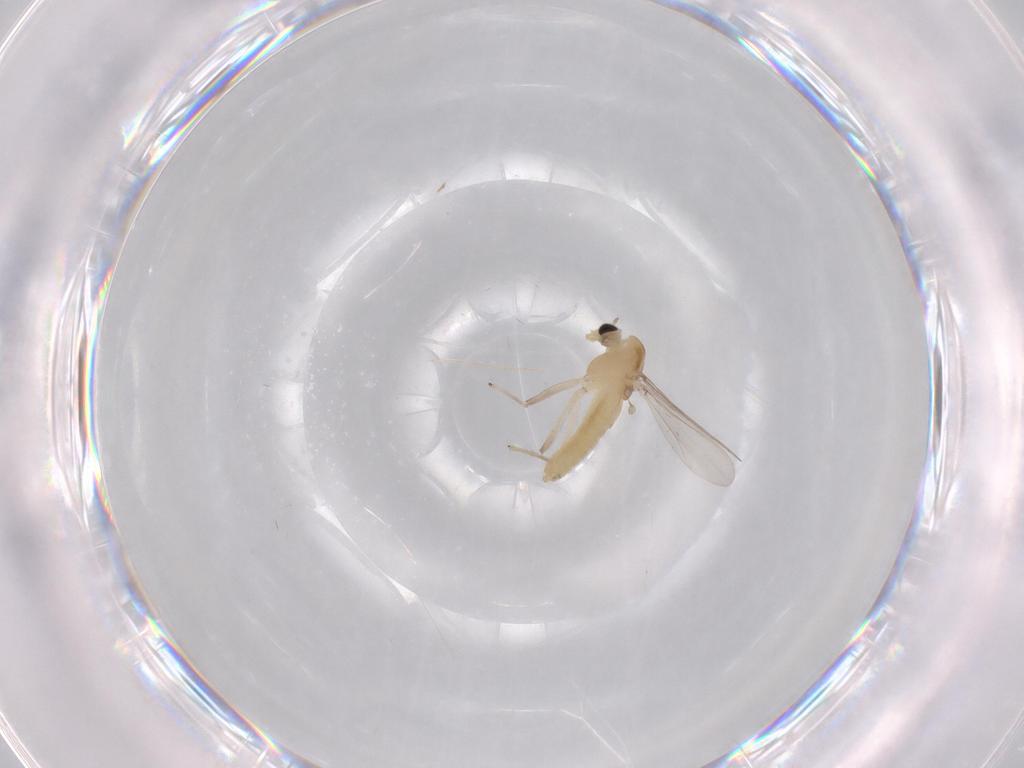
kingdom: Animalia
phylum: Arthropoda
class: Insecta
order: Diptera
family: Chironomidae
